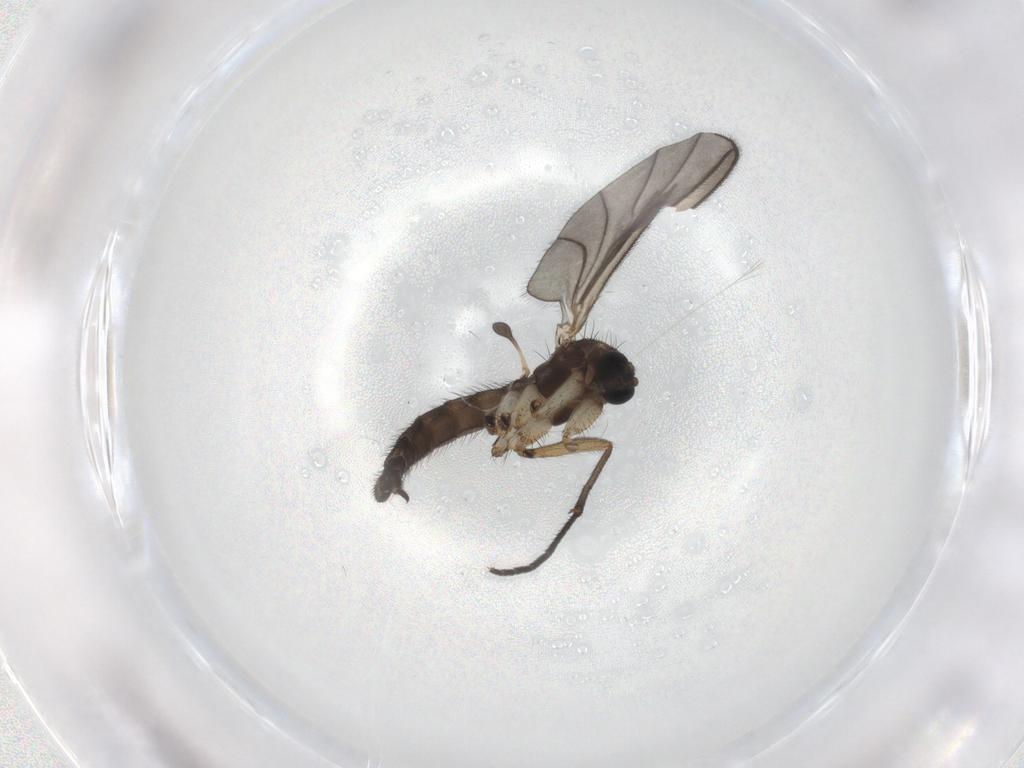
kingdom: Animalia
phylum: Arthropoda
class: Insecta
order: Diptera
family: Sciaridae
